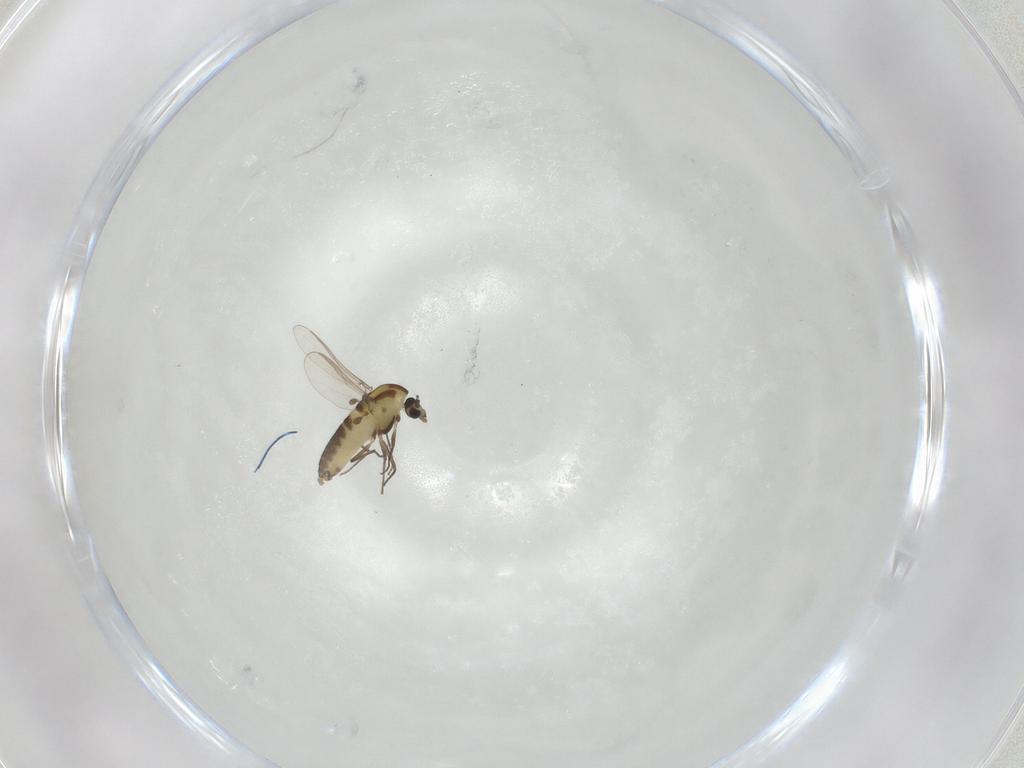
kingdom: Animalia
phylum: Arthropoda
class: Insecta
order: Diptera
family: Chironomidae
